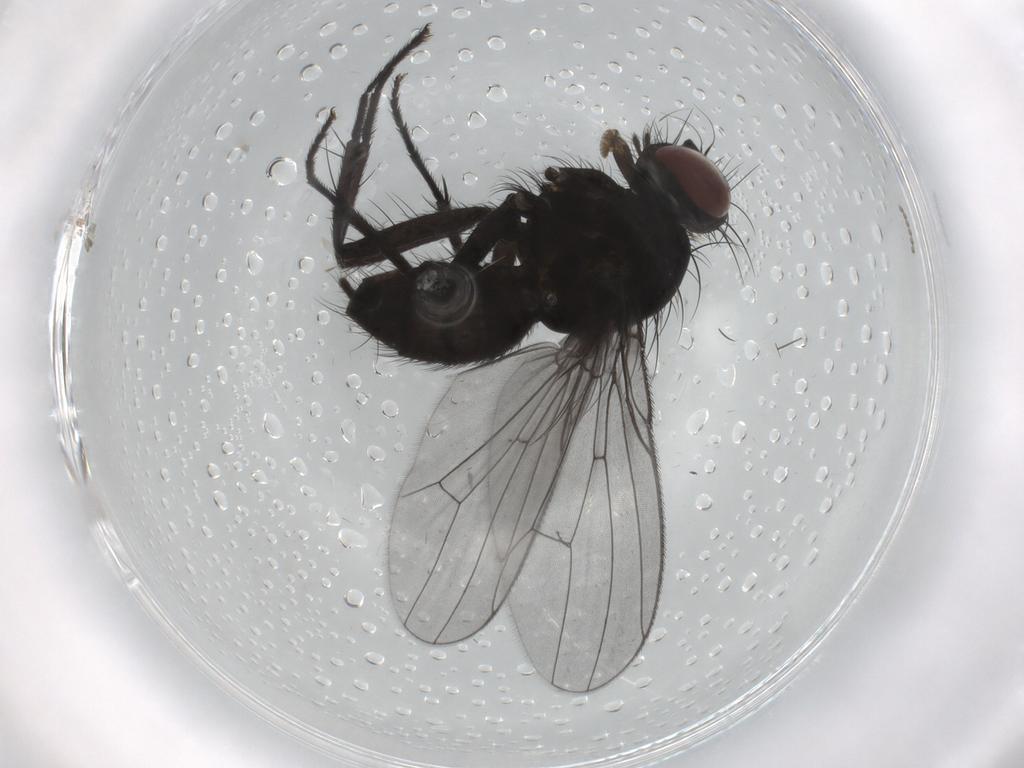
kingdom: Animalia
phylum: Arthropoda
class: Insecta
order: Diptera
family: Muscidae
